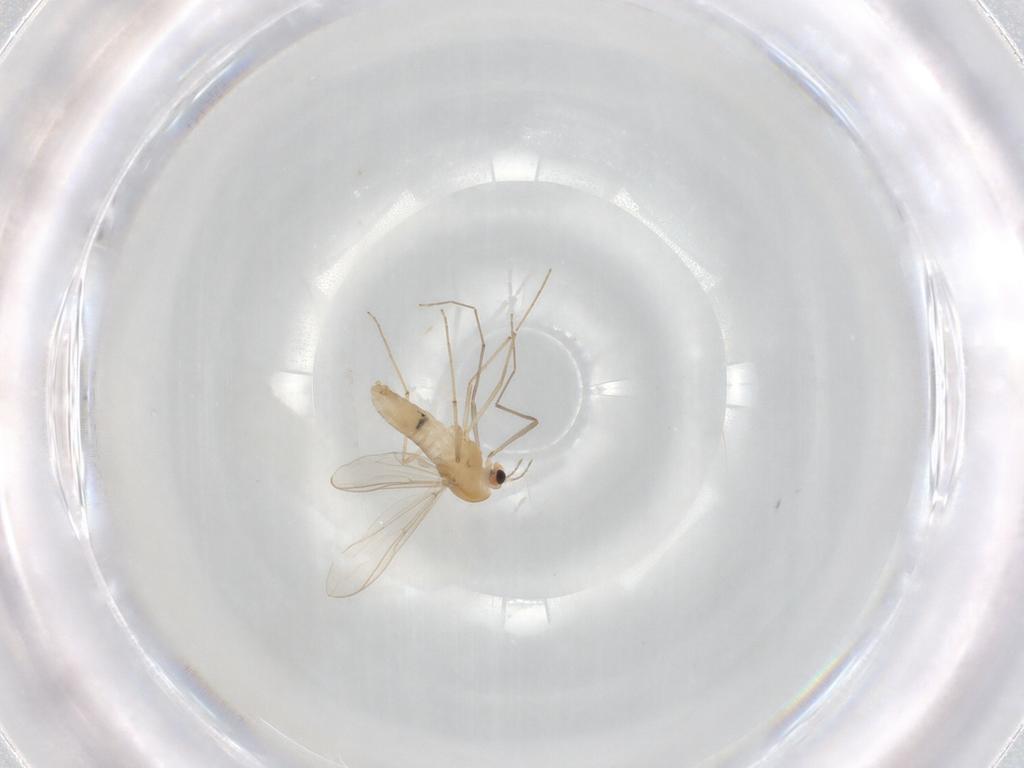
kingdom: Animalia
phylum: Arthropoda
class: Insecta
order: Diptera
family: Chironomidae
